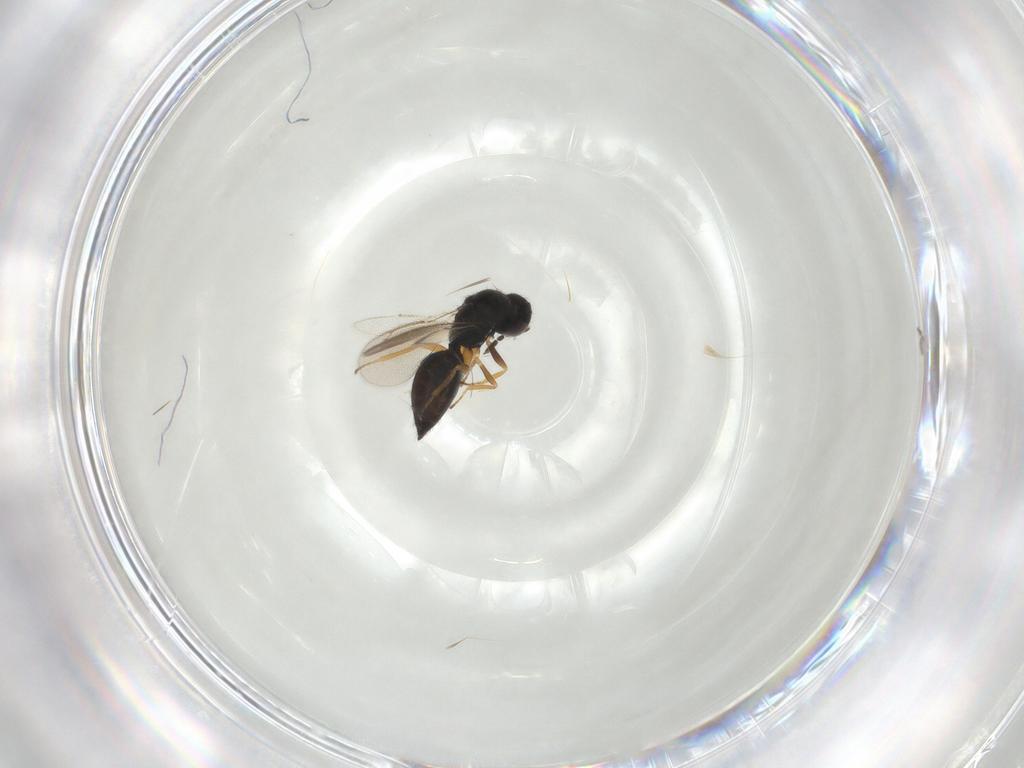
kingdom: Animalia
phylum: Arthropoda
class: Insecta
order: Hymenoptera
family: Eulophidae
